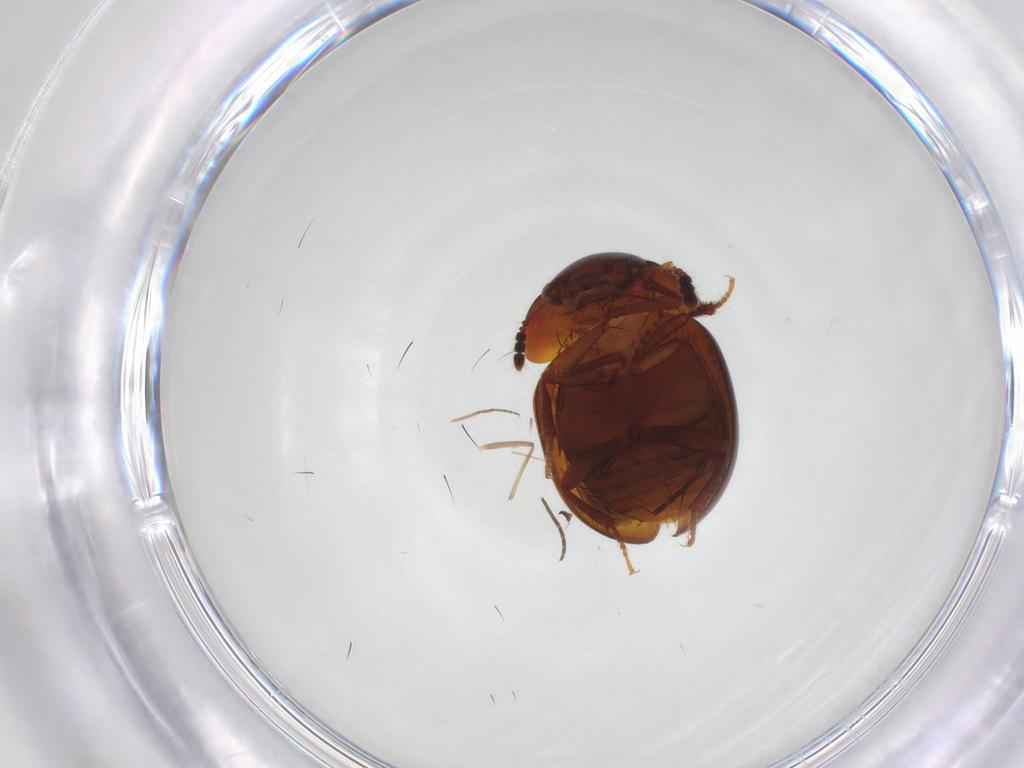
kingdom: Animalia
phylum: Arthropoda
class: Insecta
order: Coleoptera
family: Leiodidae
